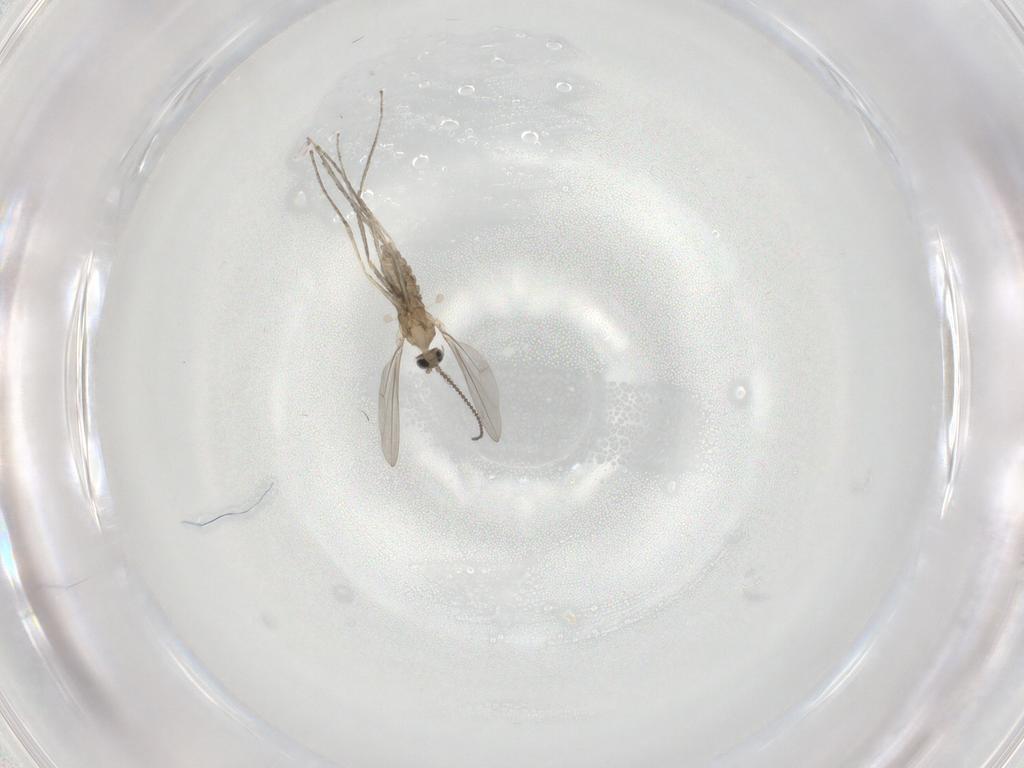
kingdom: Animalia
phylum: Arthropoda
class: Insecta
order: Diptera
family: Cecidomyiidae
